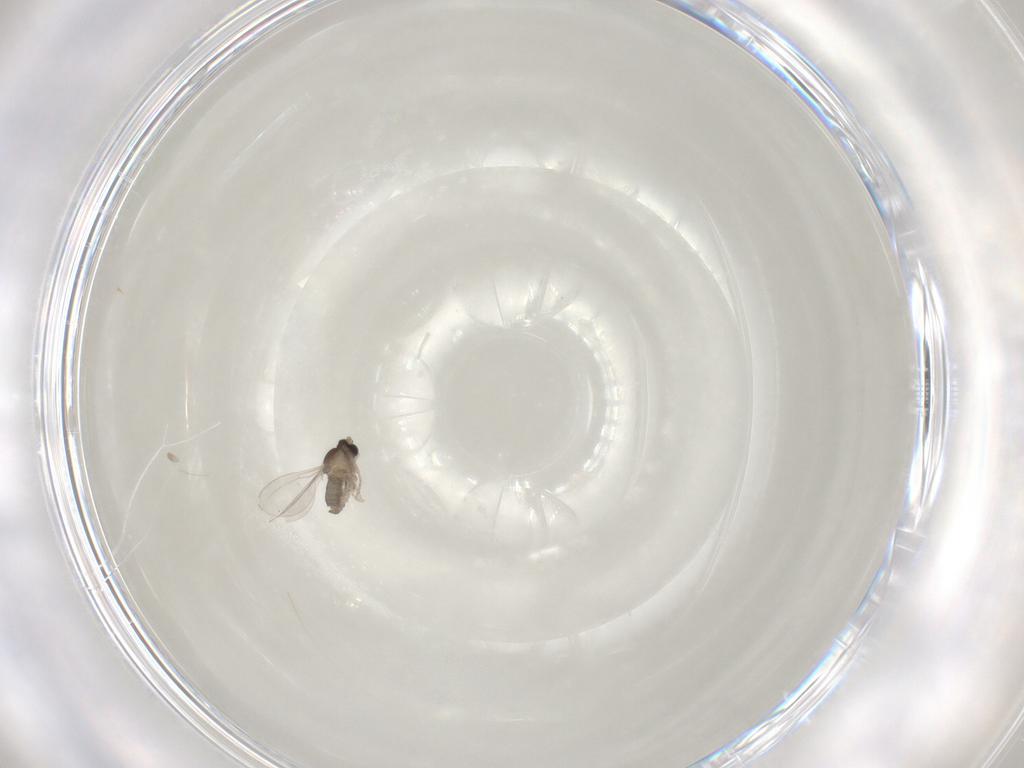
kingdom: Animalia
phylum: Arthropoda
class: Insecta
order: Diptera
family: Cecidomyiidae
